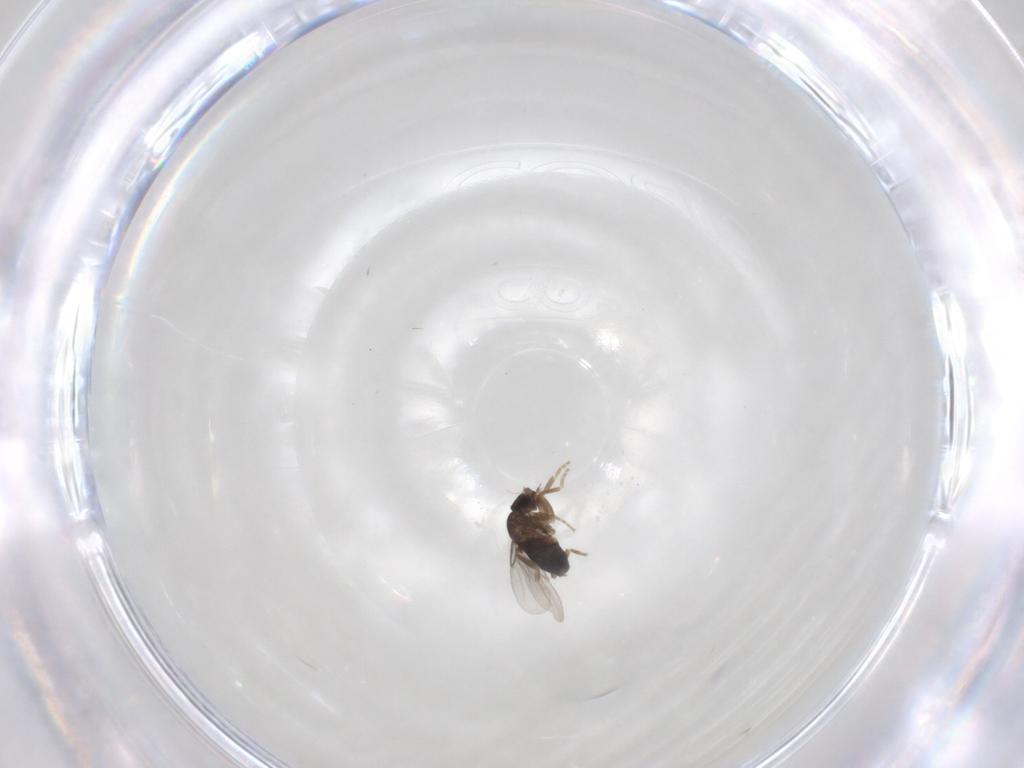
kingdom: Animalia
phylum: Arthropoda
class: Insecta
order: Diptera
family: Phoridae
